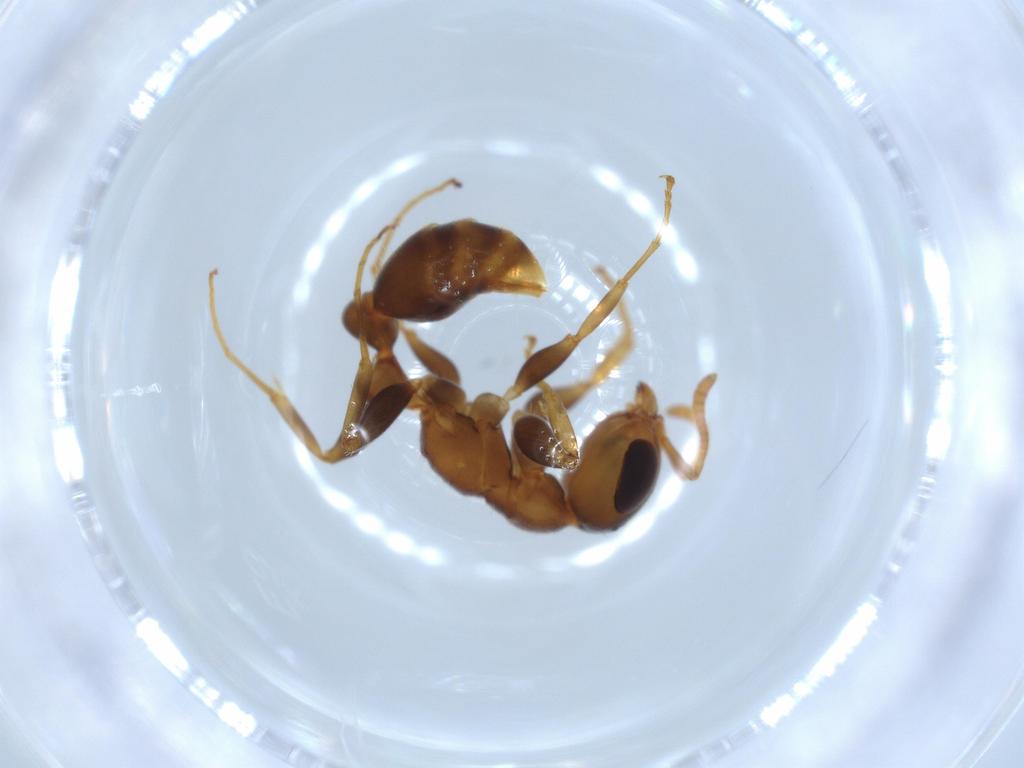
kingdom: Animalia
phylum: Arthropoda
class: Insecta
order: Hymenoptera
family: Formicidae
